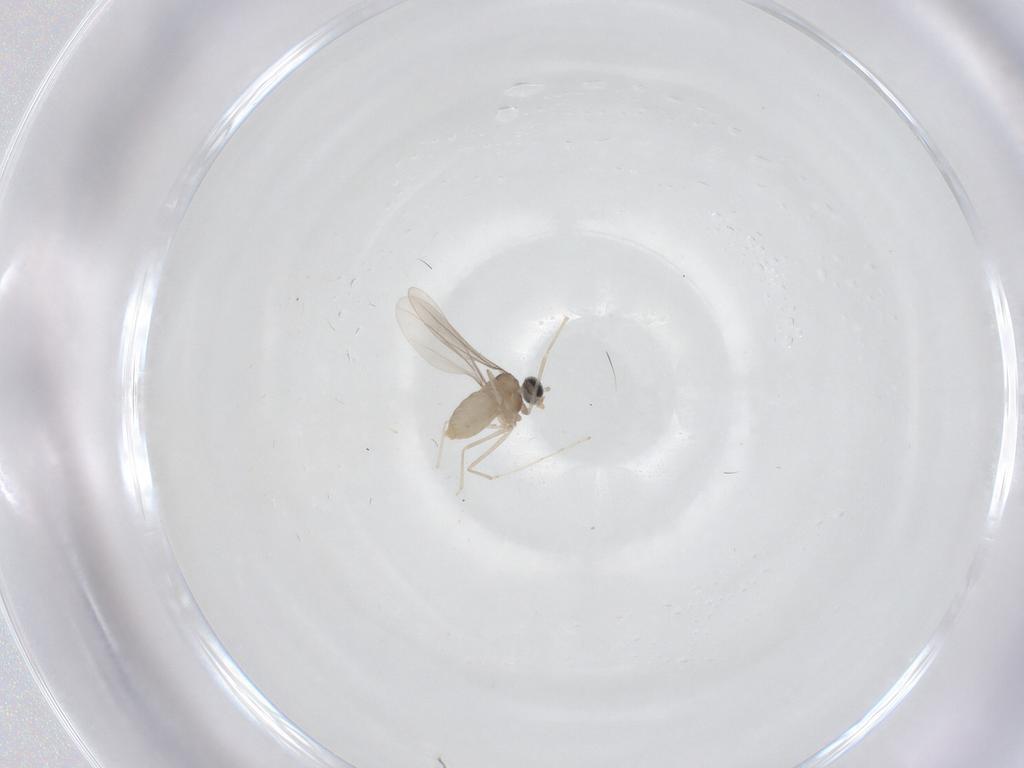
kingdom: Animalia
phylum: Arthropoda
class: Insecta
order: Diptera
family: Cecidomyiidae
